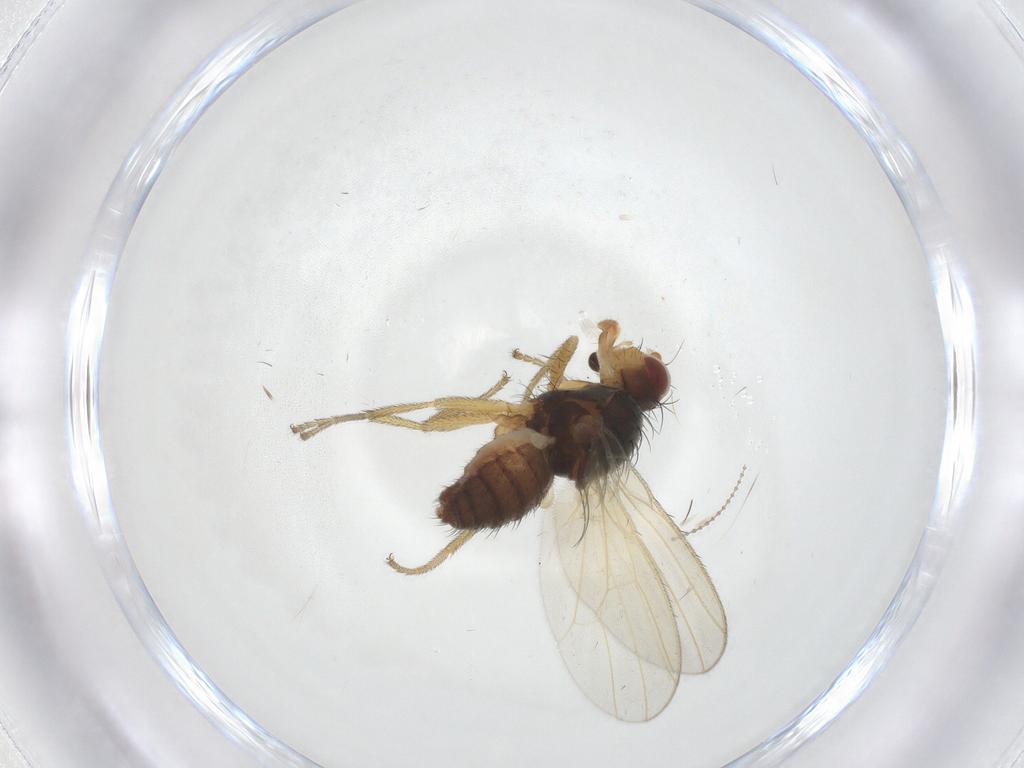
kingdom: Animalia
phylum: Arthropoda
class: Insecta
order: Diptera
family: Heleomyzidae
